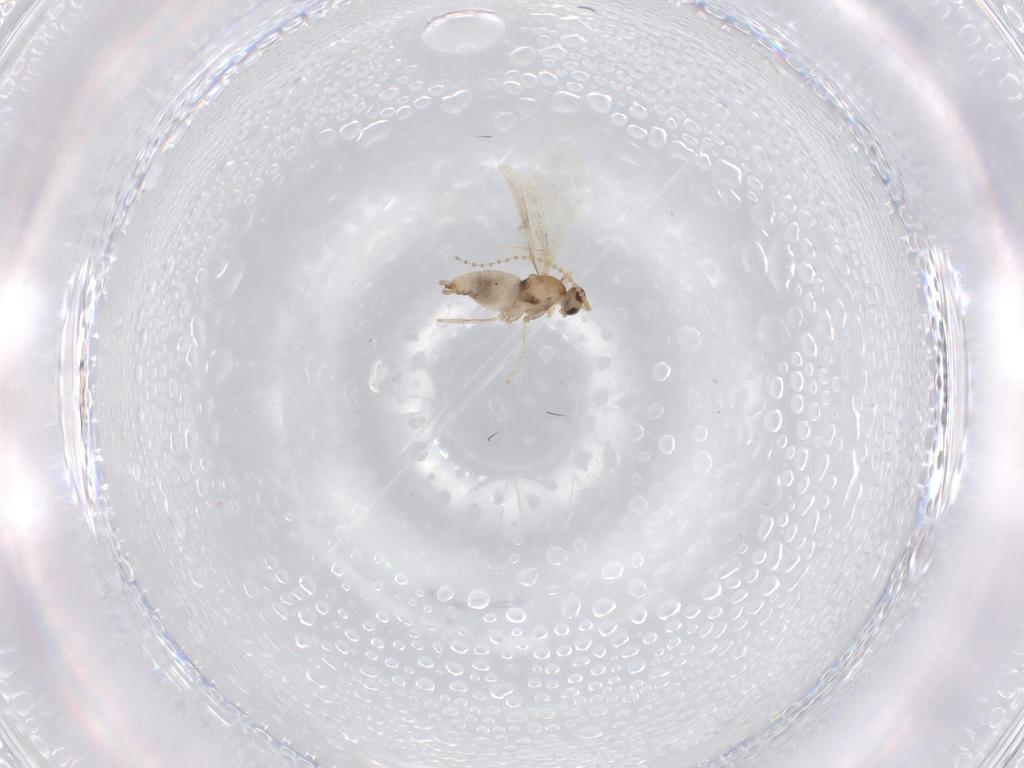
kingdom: Animalia
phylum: Arthropoda
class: Insecta
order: Diptera
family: Cecidomyiidae
